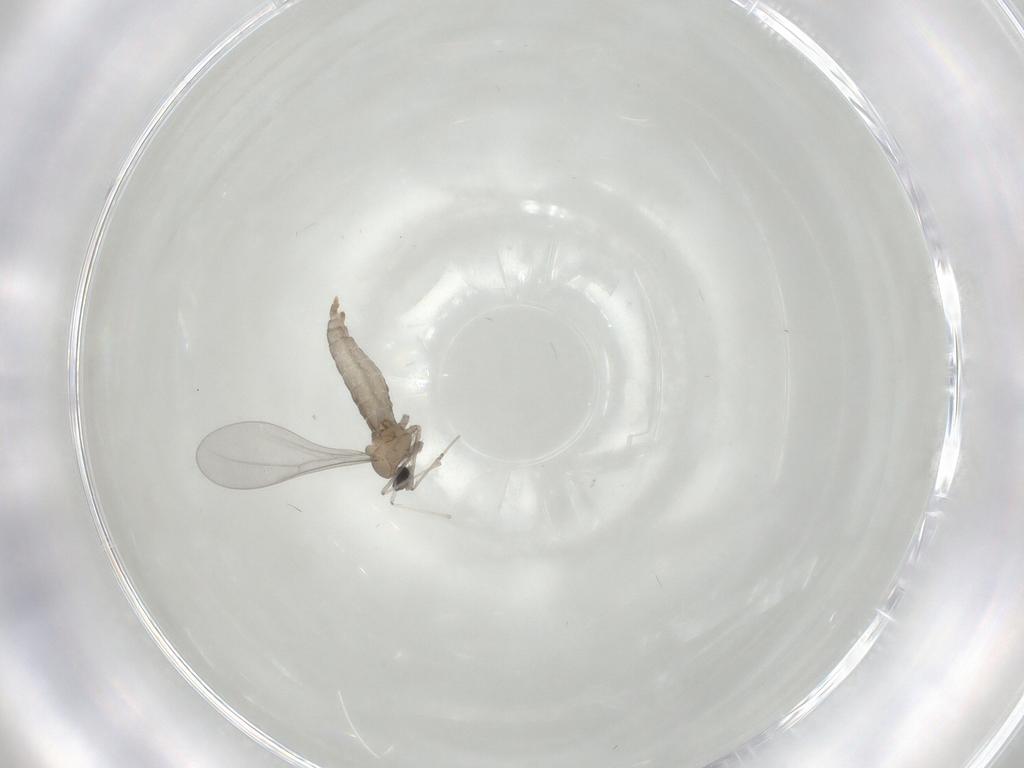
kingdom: Animalia
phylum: Arthropoda
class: Insecta
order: Diptera
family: Cecidomyiidae
